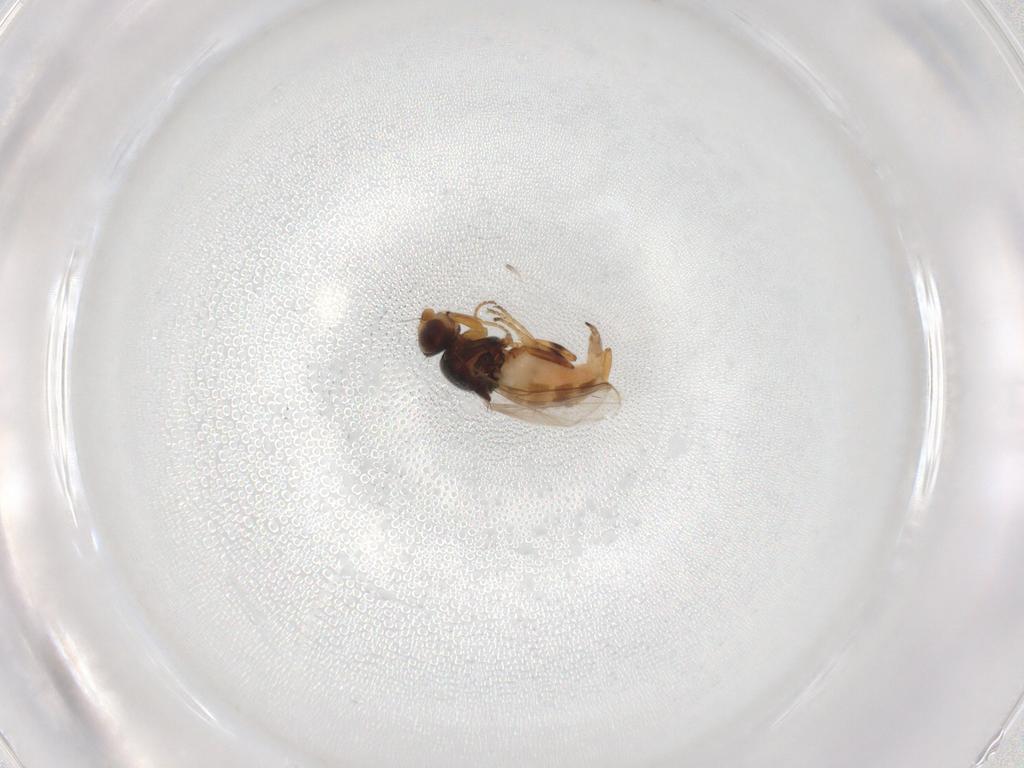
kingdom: Animalia
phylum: Arthropoda
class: Insecta
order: Diptera
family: Chloropidae
